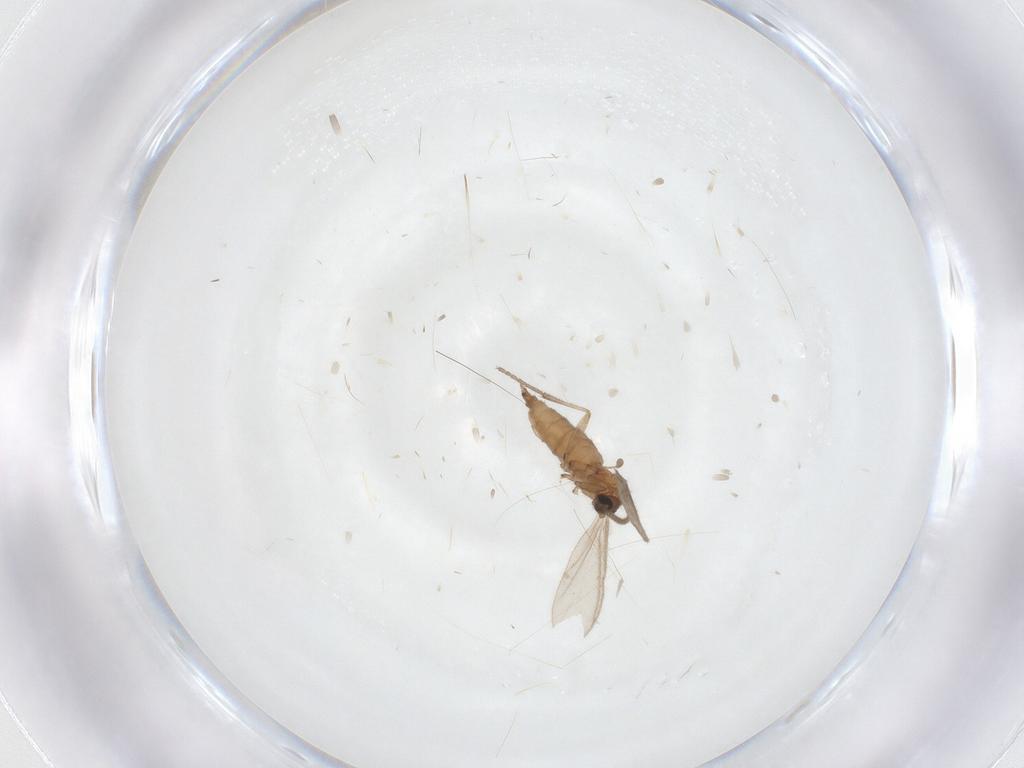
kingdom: Animalia
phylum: Arthropoda
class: Insecta
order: Diptera
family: Sciaridae
